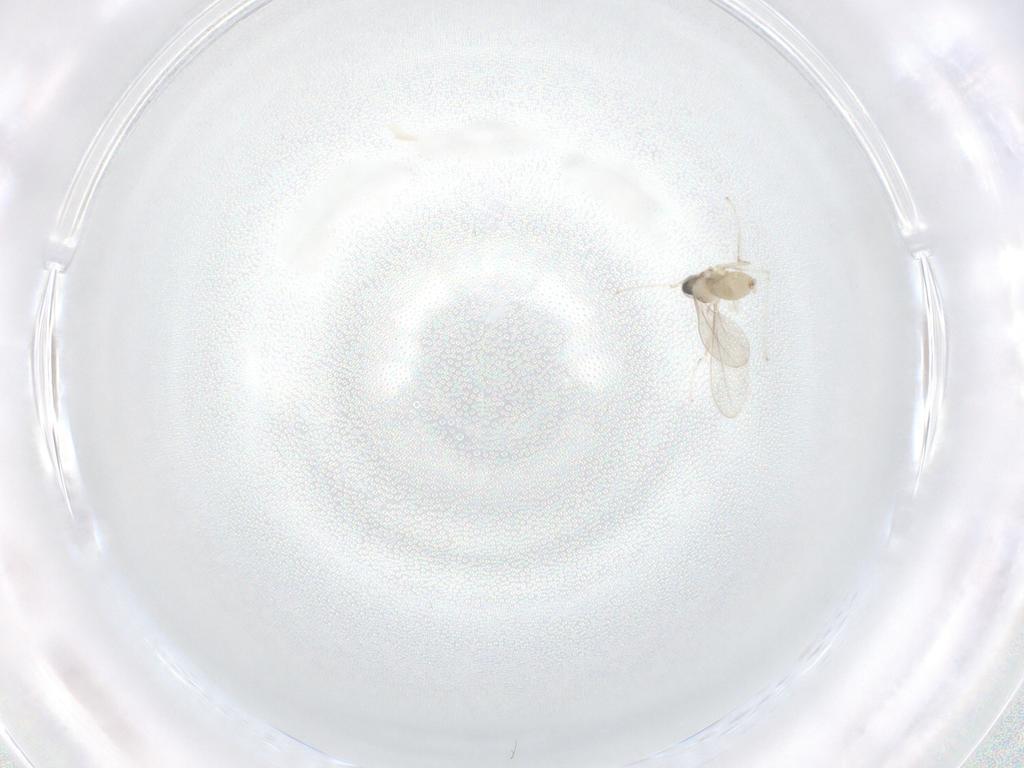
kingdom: Animalia
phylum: Arthropoda
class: Insecta
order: Diptera
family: Cecidomyiidae
